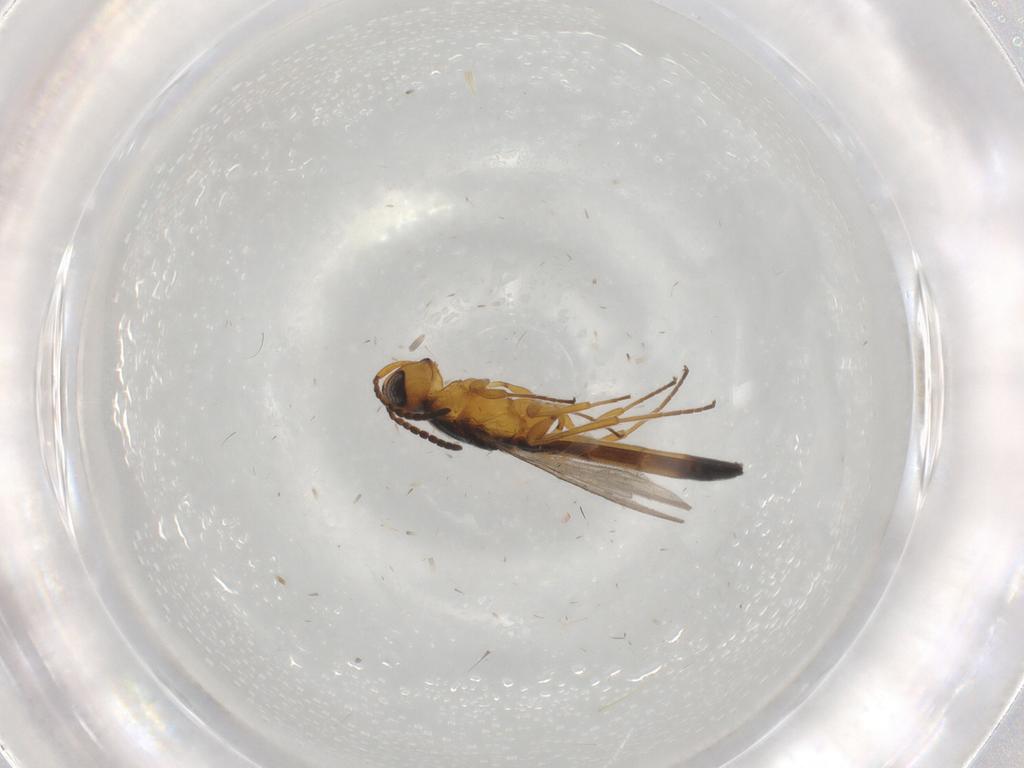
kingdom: Animalia
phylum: Arthropoda
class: Insecta
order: Hymenoptera
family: Scelionidae
